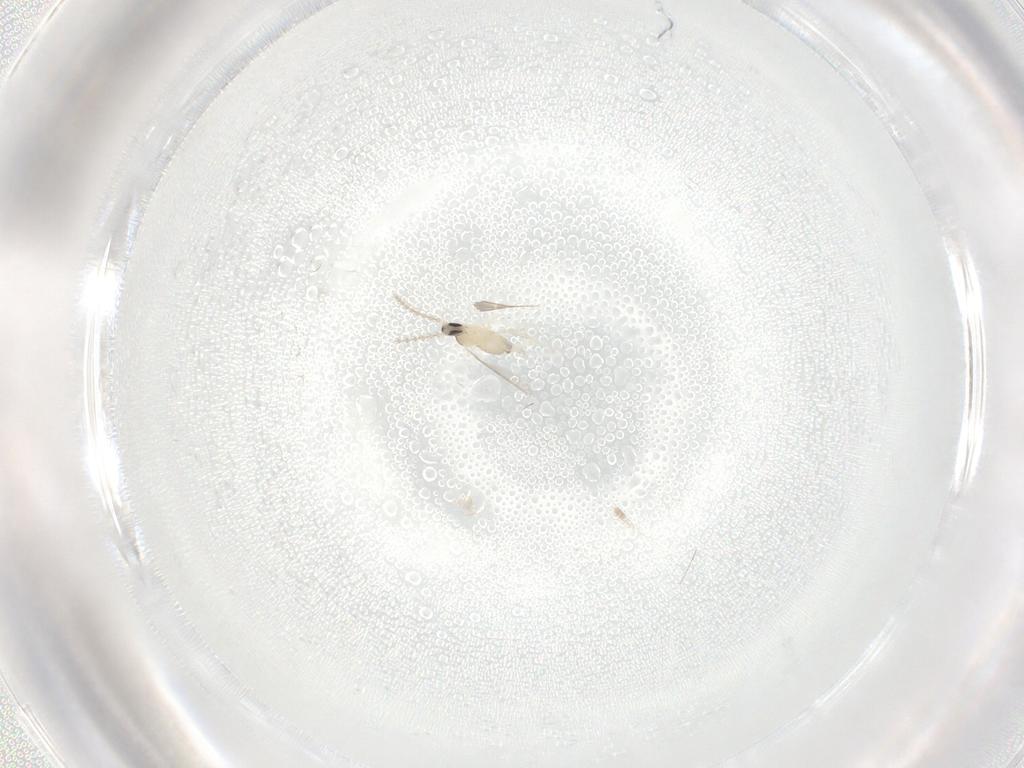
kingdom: Animalia
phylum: Arthropoda
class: Insecta
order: Diptera
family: Cecidomyiidae
